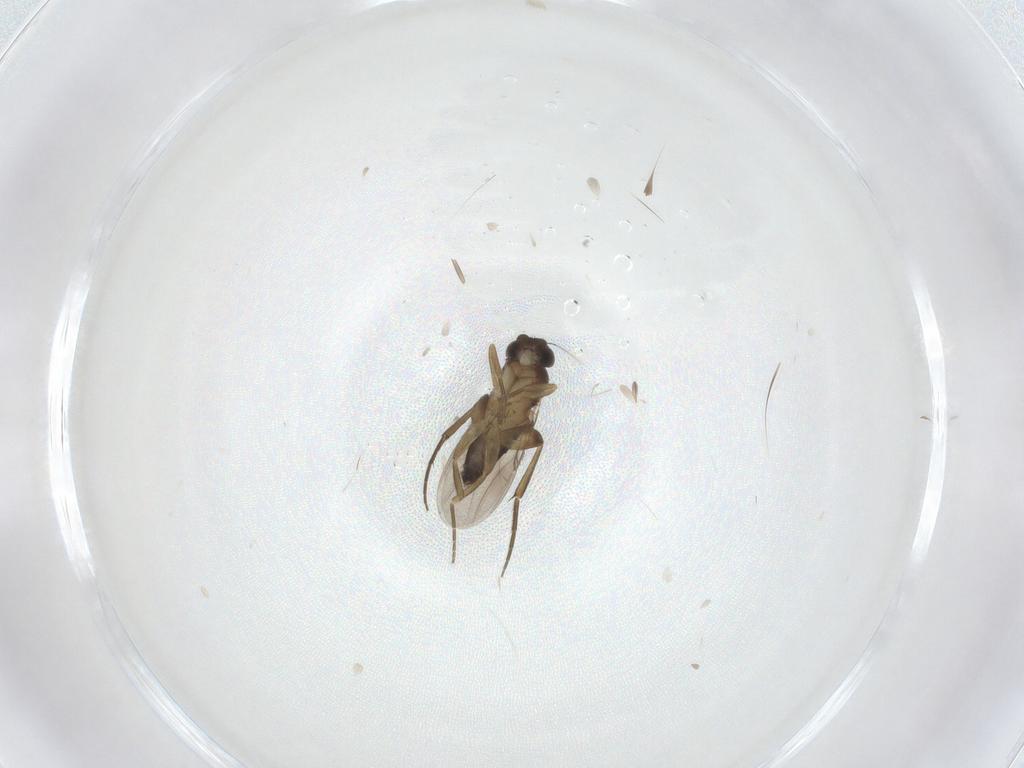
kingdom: Animalia
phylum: Arthropoda
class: Insecta
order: Diptera
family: Phoridae
